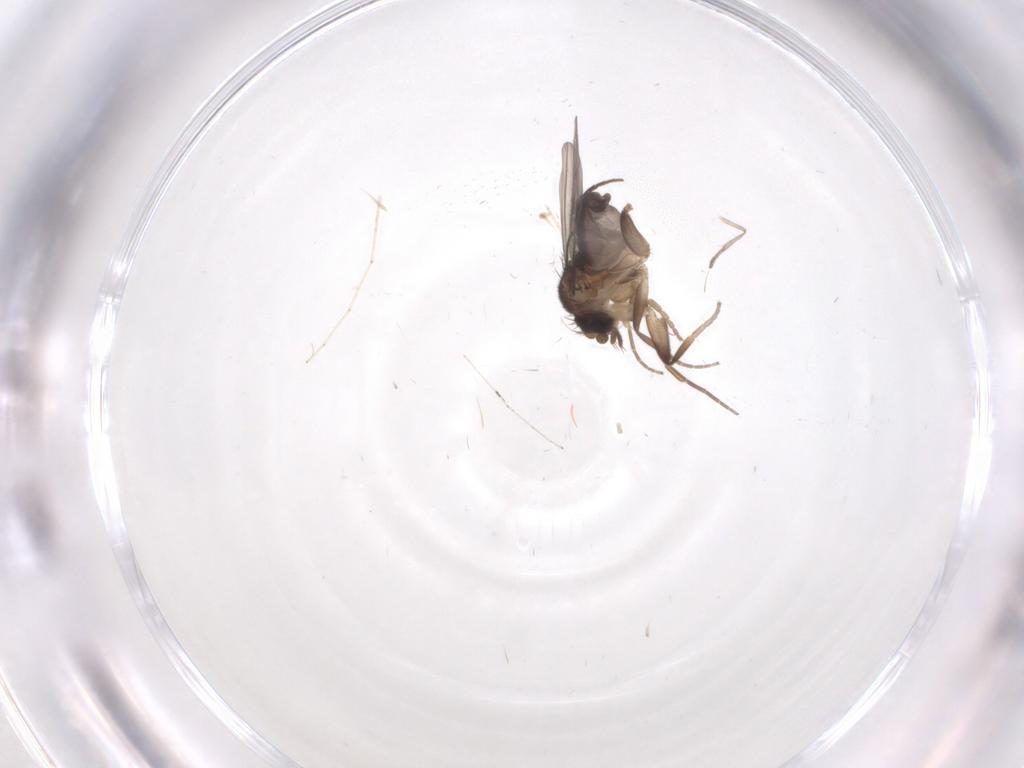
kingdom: Animalia
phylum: Arthropoda
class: Insecta
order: Diptera
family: Phoridae
